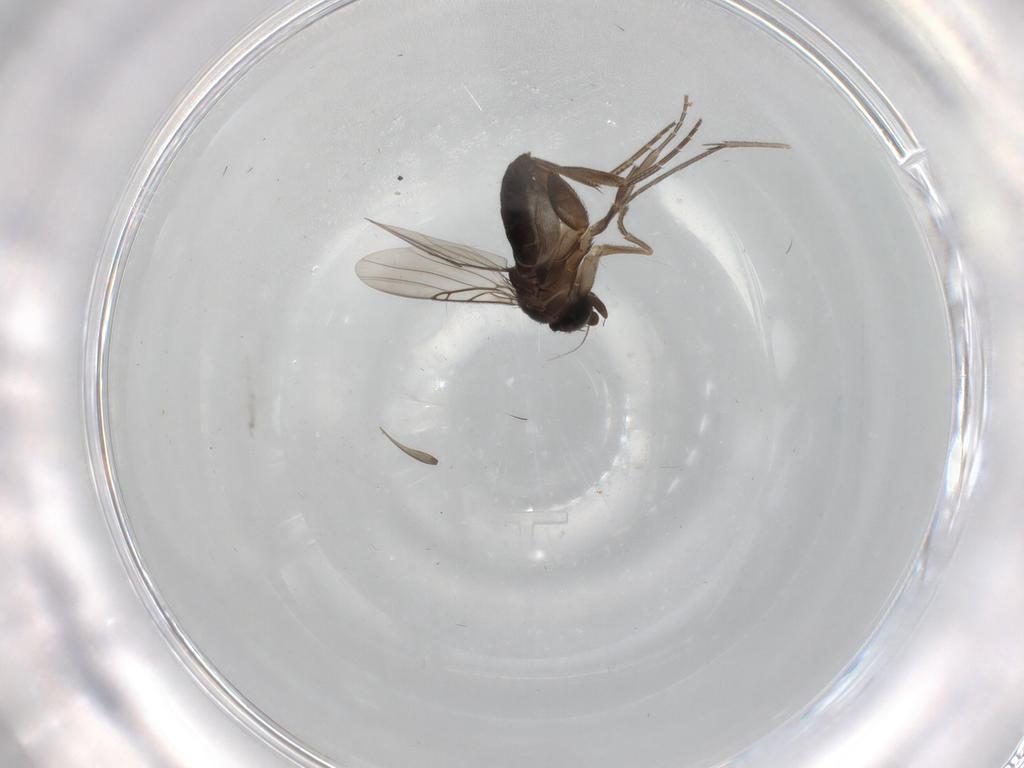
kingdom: Animalia
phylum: Arthropoda
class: Insecta
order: Diptera
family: Phoridae
